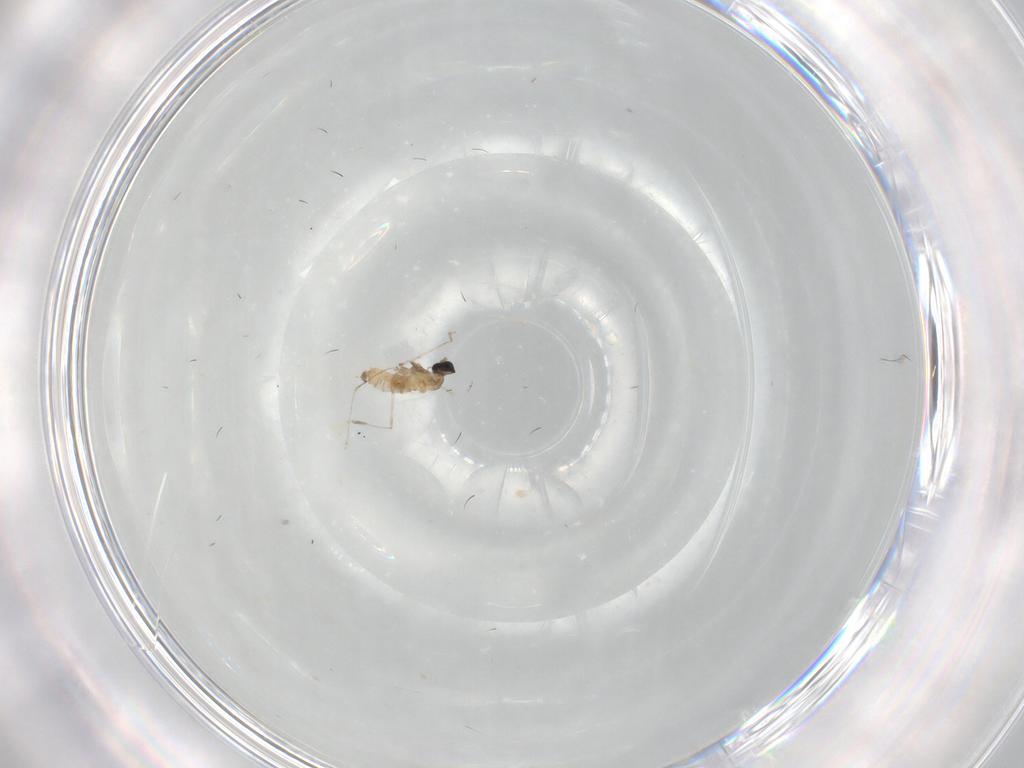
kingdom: Animalia
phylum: Arthropoda
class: Insecta
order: Diptera
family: Cecidomyiidae
